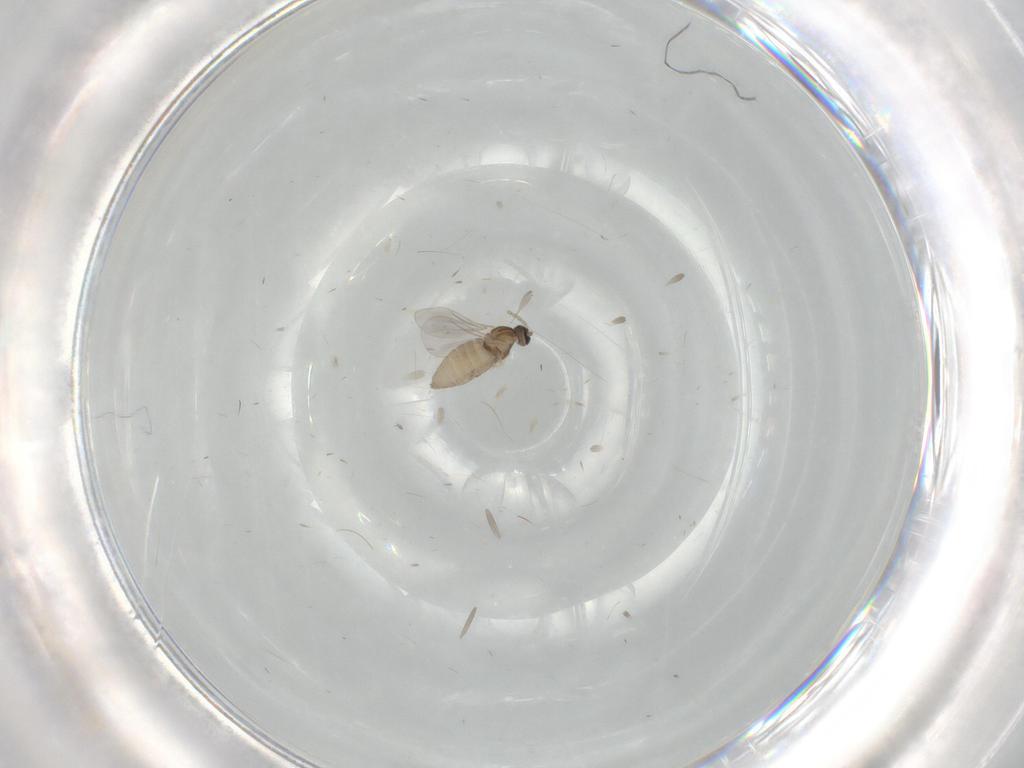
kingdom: Animalia
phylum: Arthropoda
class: Insecta
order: Diptera
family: Cecidomyiidae
